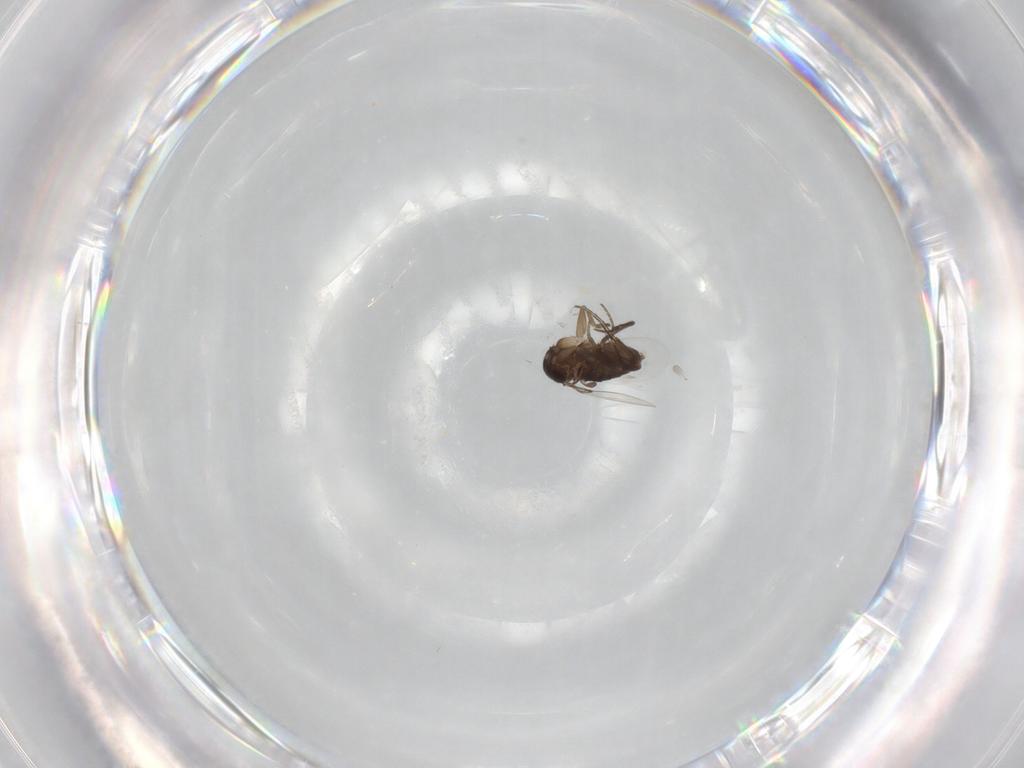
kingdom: Animalia
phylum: Arthropoda
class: Insecta
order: Diptera
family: Phoridae
